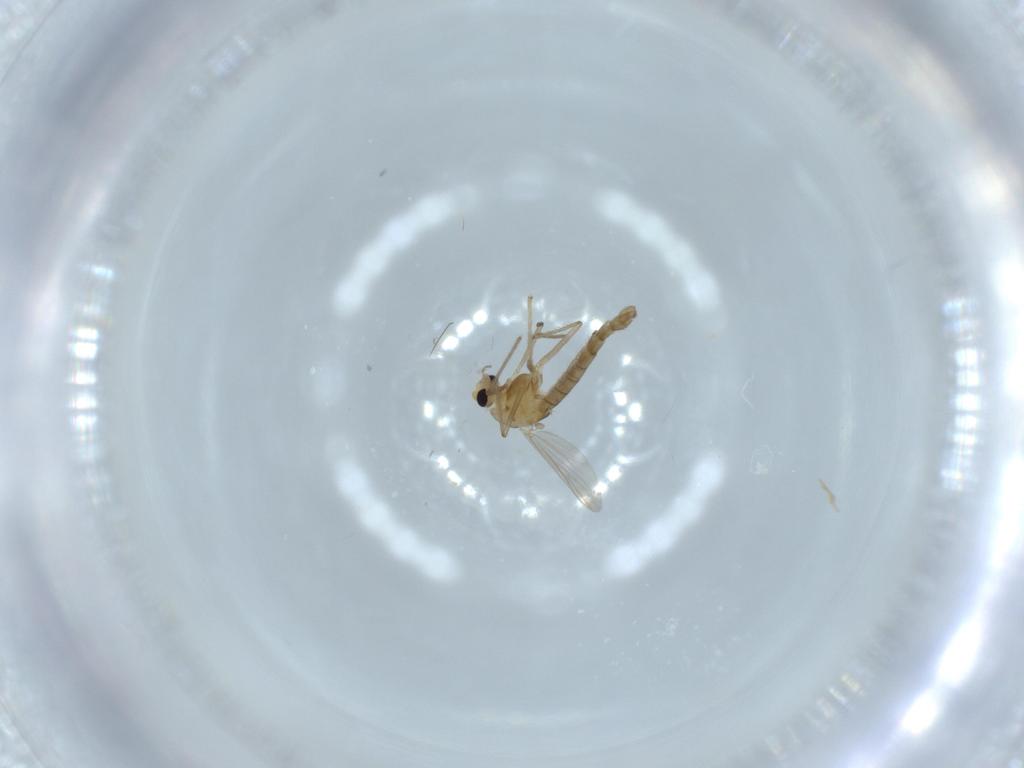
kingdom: Animalia
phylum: Arthropoda
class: Insecta
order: Diptera
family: Chironomidae
